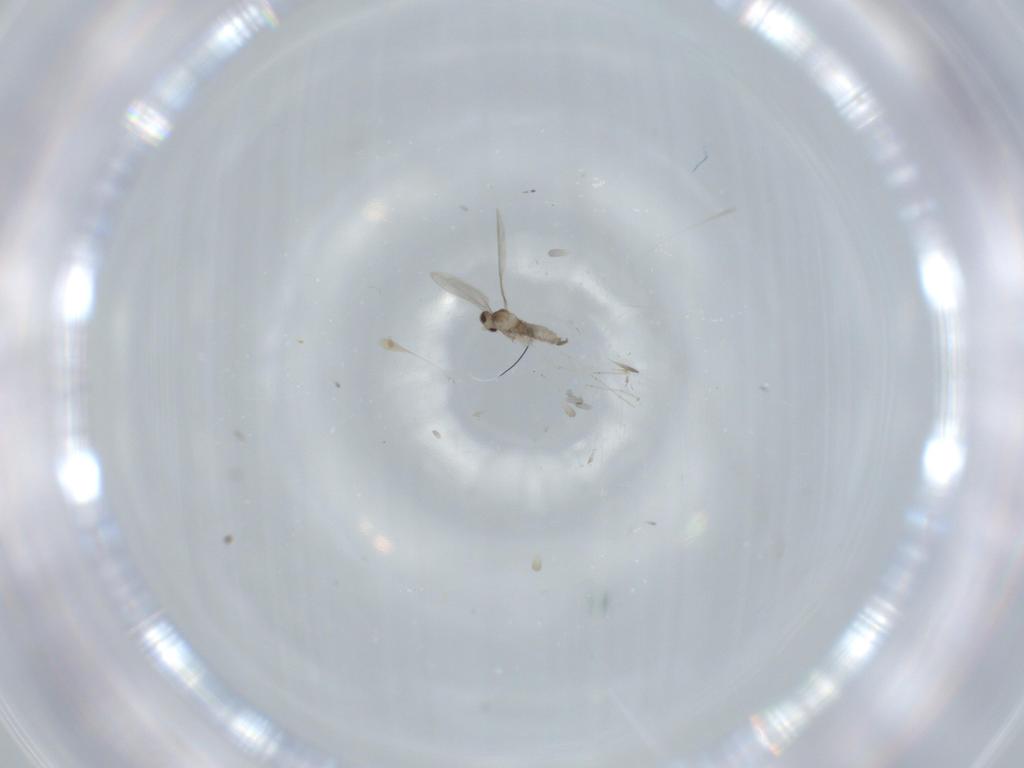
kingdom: Animalia
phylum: Arthropoda
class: Insecta
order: Diptera
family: Cecidomyiidae
